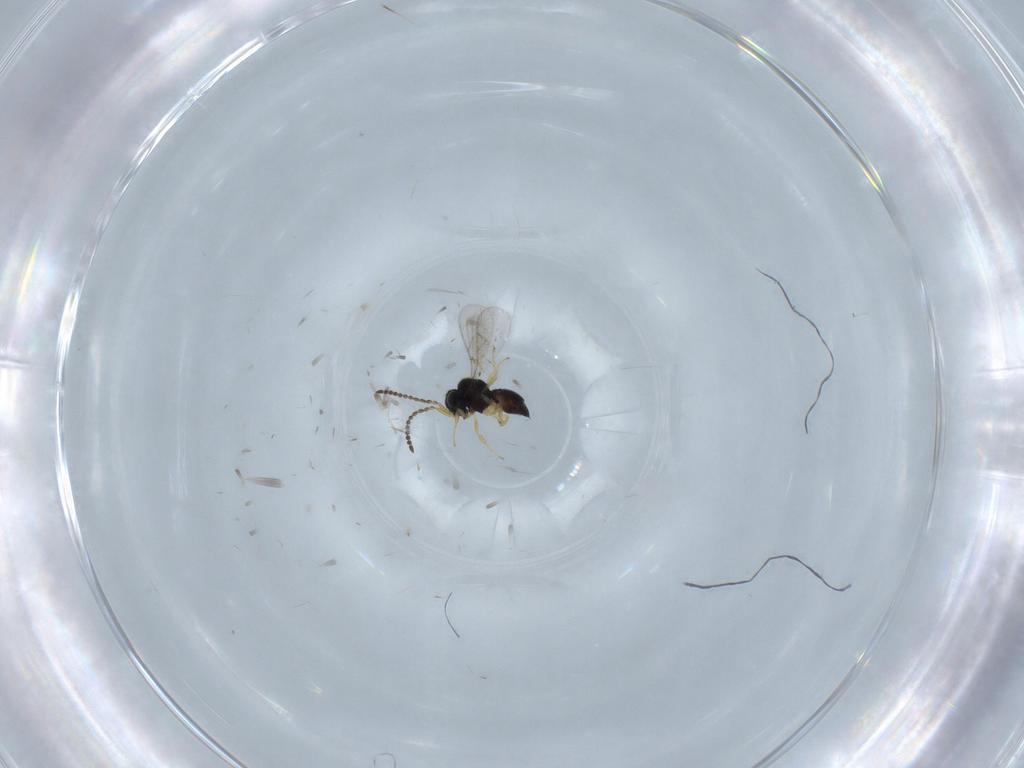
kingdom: Animalia
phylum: Arthropoda
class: Insecta
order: Hymenoptera
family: Scelionidae
